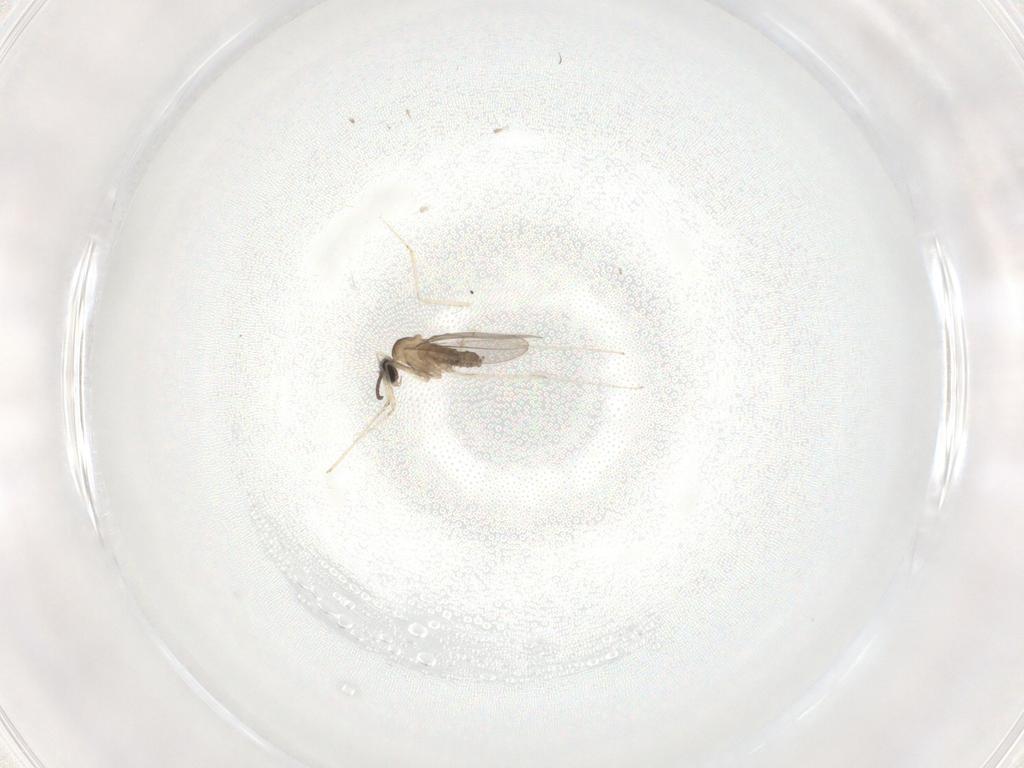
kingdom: Animalia
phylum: Arthropoda
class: Insecta
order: Diptera
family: Cecidomyiidae
